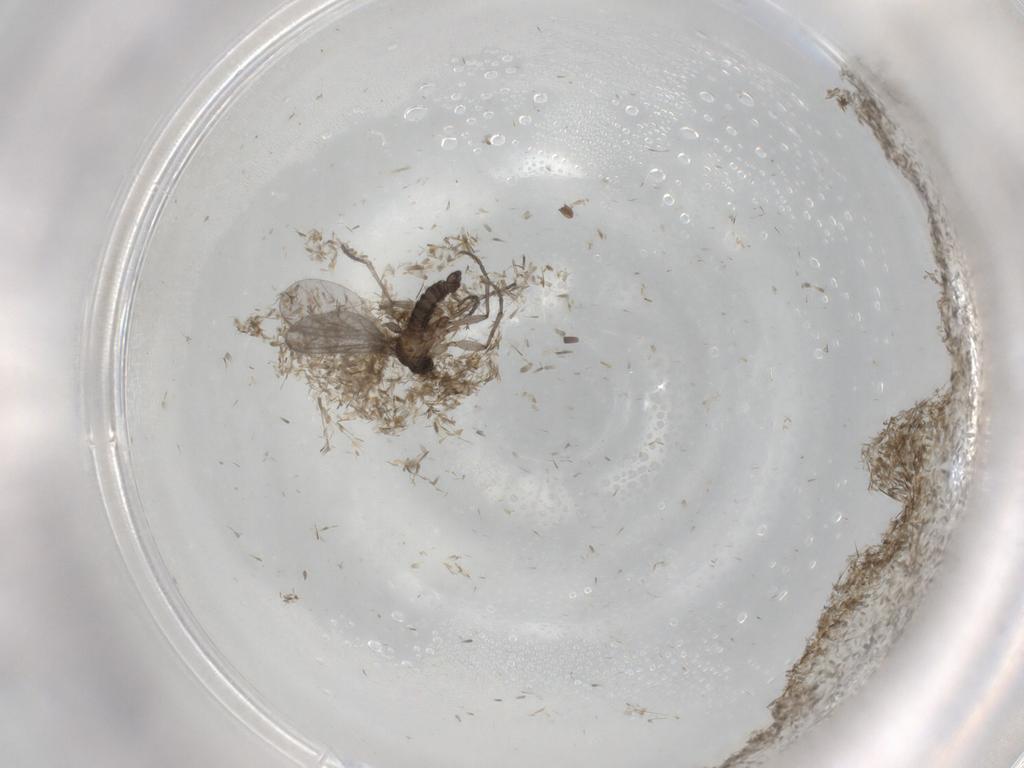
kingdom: Animalia
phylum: Arthropoda
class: Insecta
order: Diptera
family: Sciaridae
